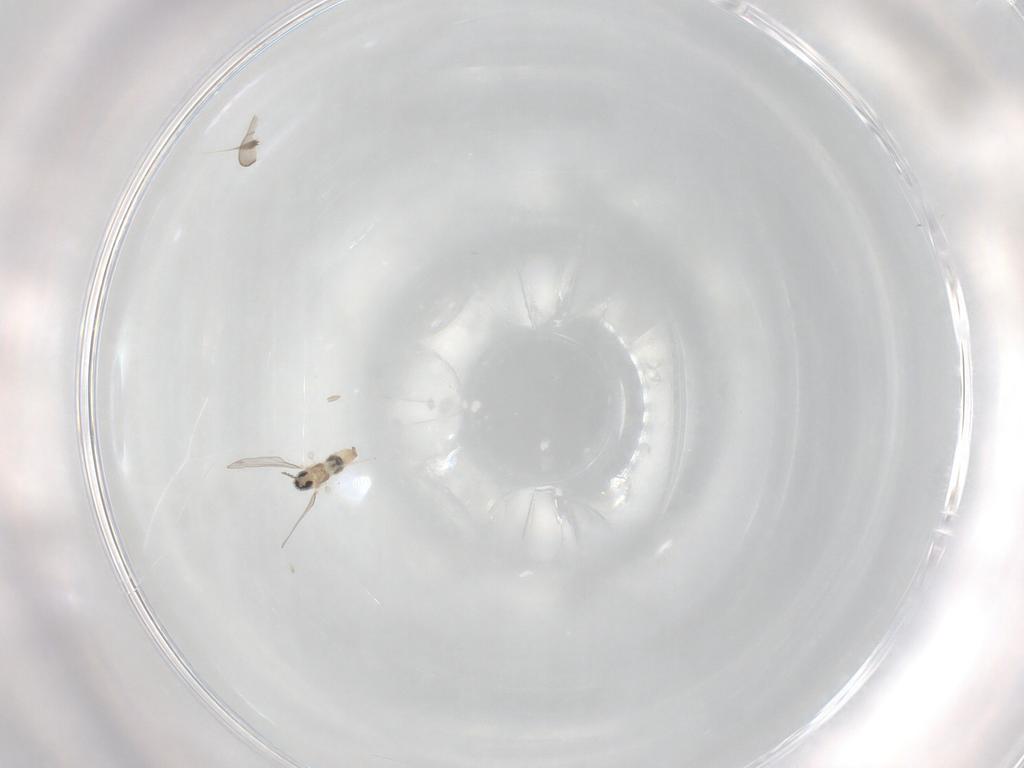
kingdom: Animalia
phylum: Arthropoda
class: Insecta
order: Diptera
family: Cecidomyiidae
